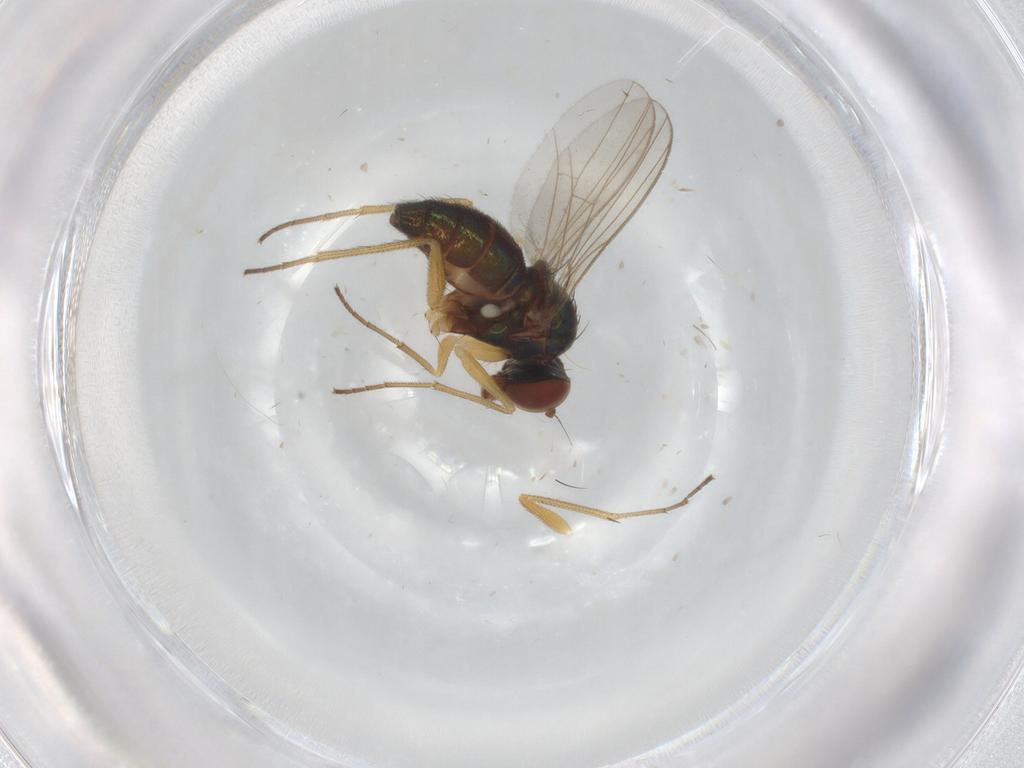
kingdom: Animalia
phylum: Arthropoda
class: Insecta
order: Diptera
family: Dolichopodidae
